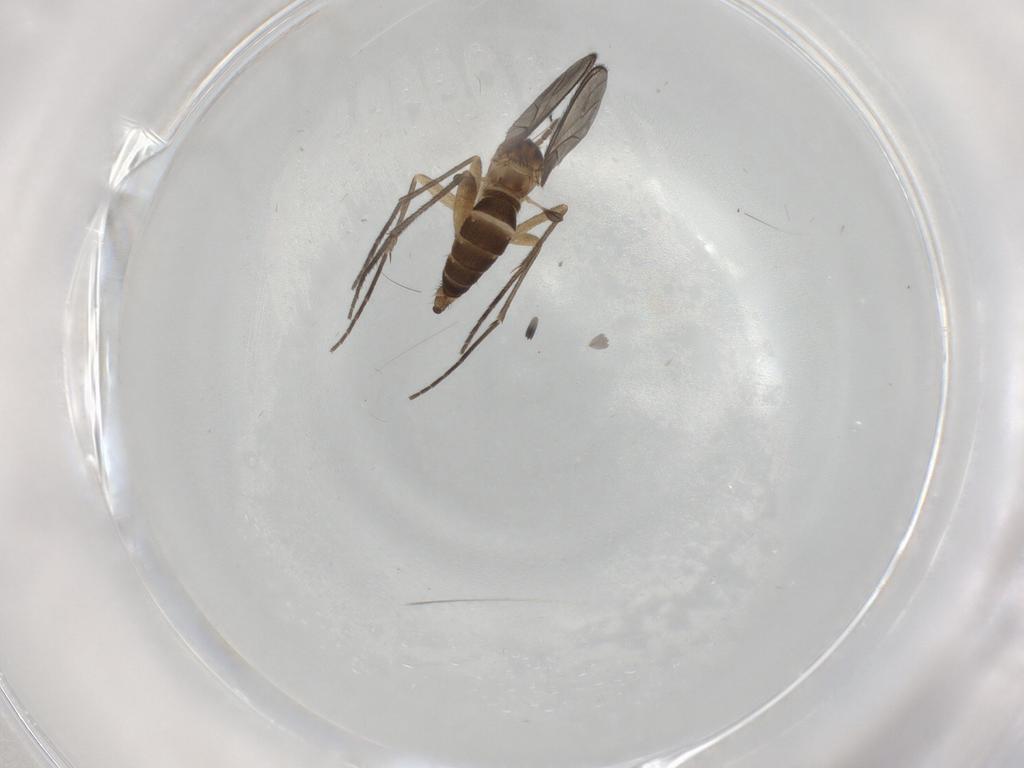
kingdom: Animalia
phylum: Arthropoda
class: Insecta
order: Diptera
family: Sciaridae
